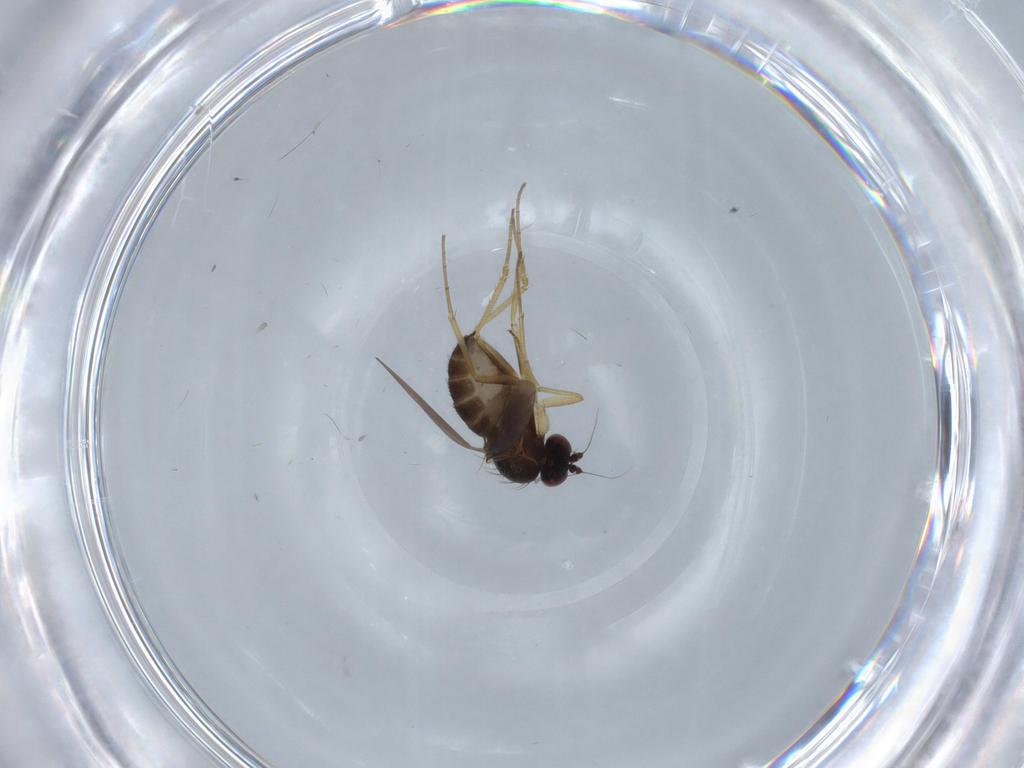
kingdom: Animalia
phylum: Arthropoda
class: Insecta
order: Diptera
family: Dolichopodidae
